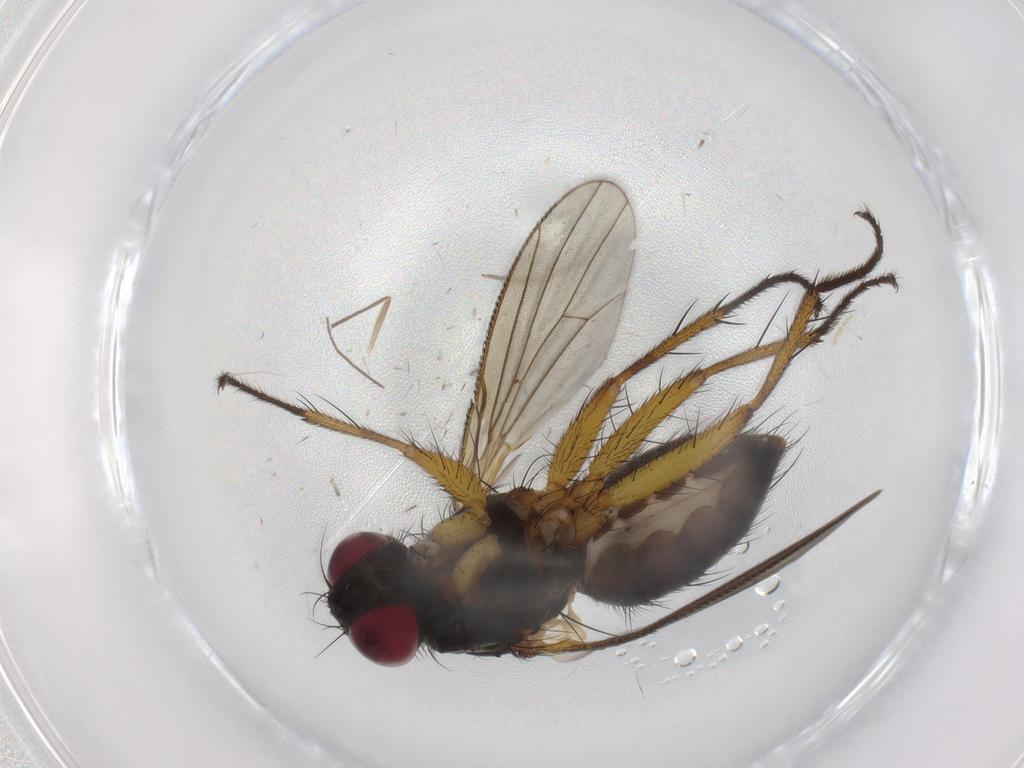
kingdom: Animalia
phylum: Arthropoda
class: Insecta
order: Diptera
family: Muscidae
